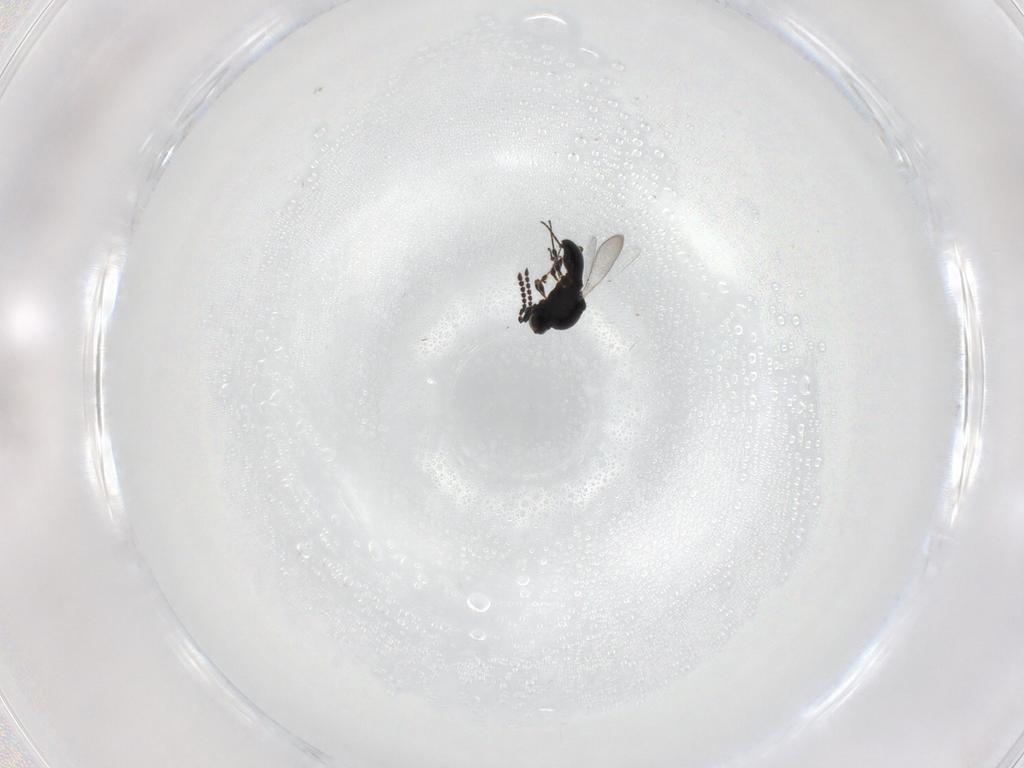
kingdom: Animalia
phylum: Arthropoda
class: Insecta
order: Hymenoptera
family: Platygastridae
